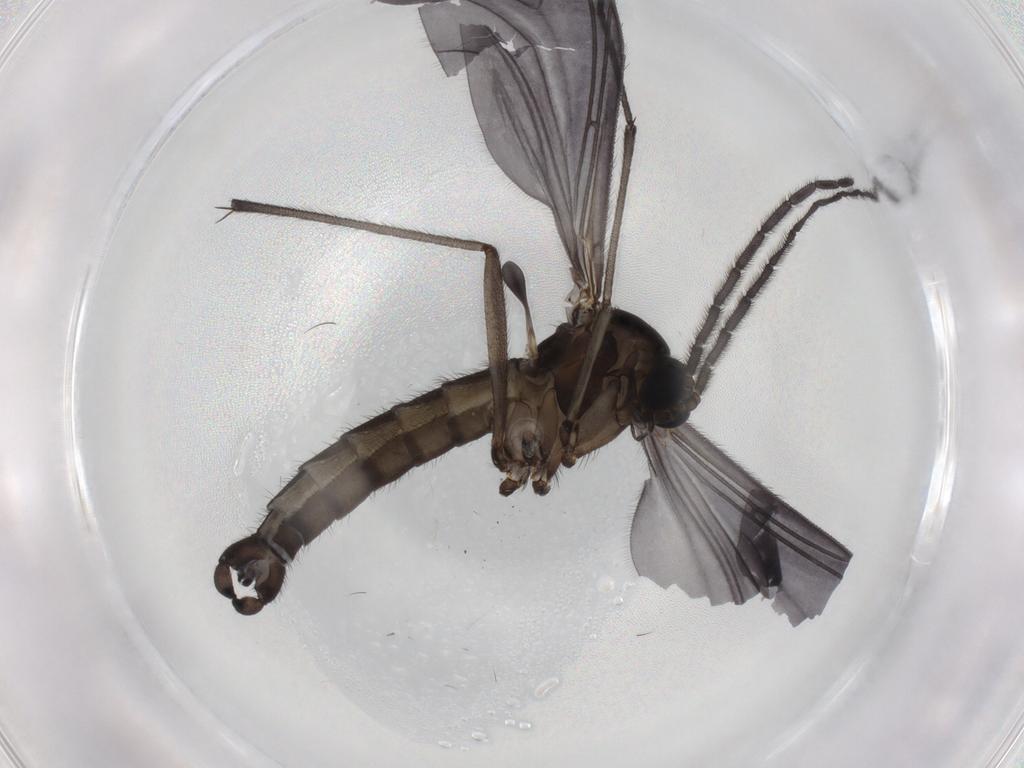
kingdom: Animalia
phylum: Arthropoda
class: Insecta
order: Diptera
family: Sciaridae
